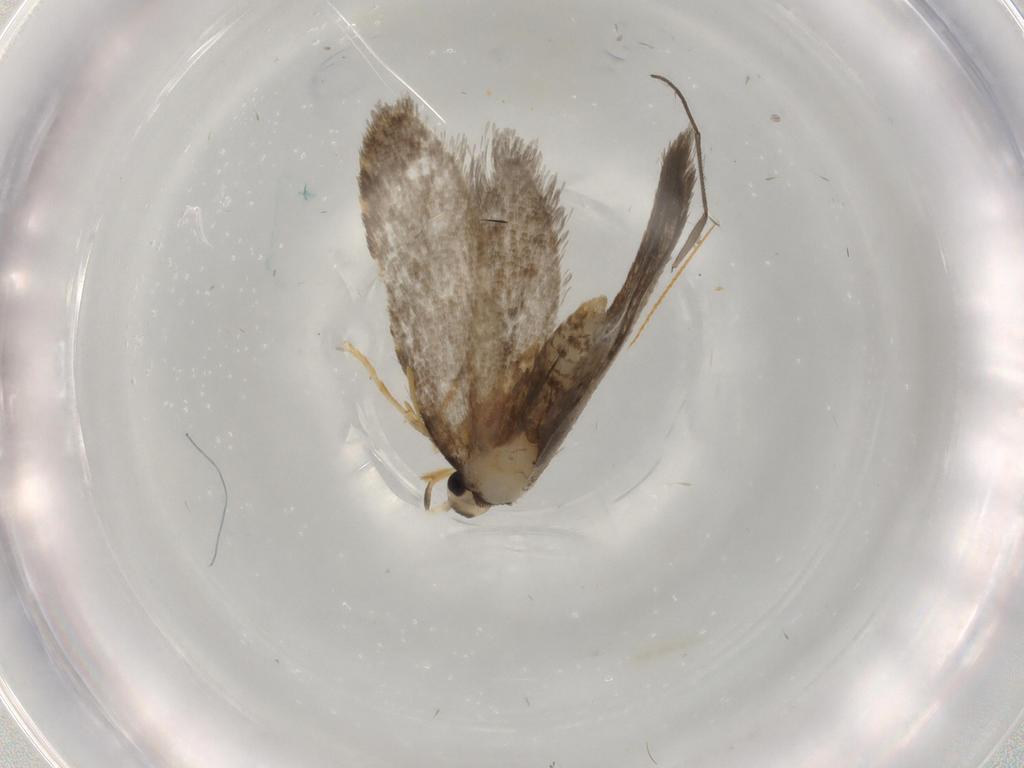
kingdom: Animalia
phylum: Arthropoda
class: Insecta
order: Lepidoptera
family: Psychidae
